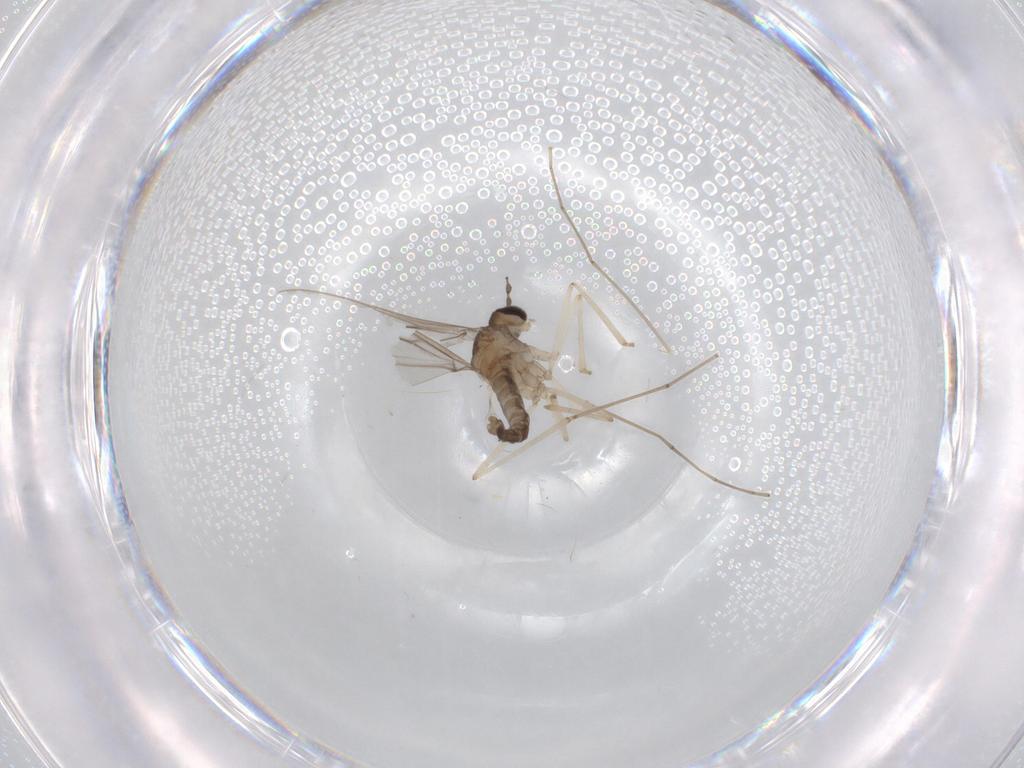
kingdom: Animalia
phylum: Arthropoda
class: Insecta
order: Diptera
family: Cecidomyiidae
